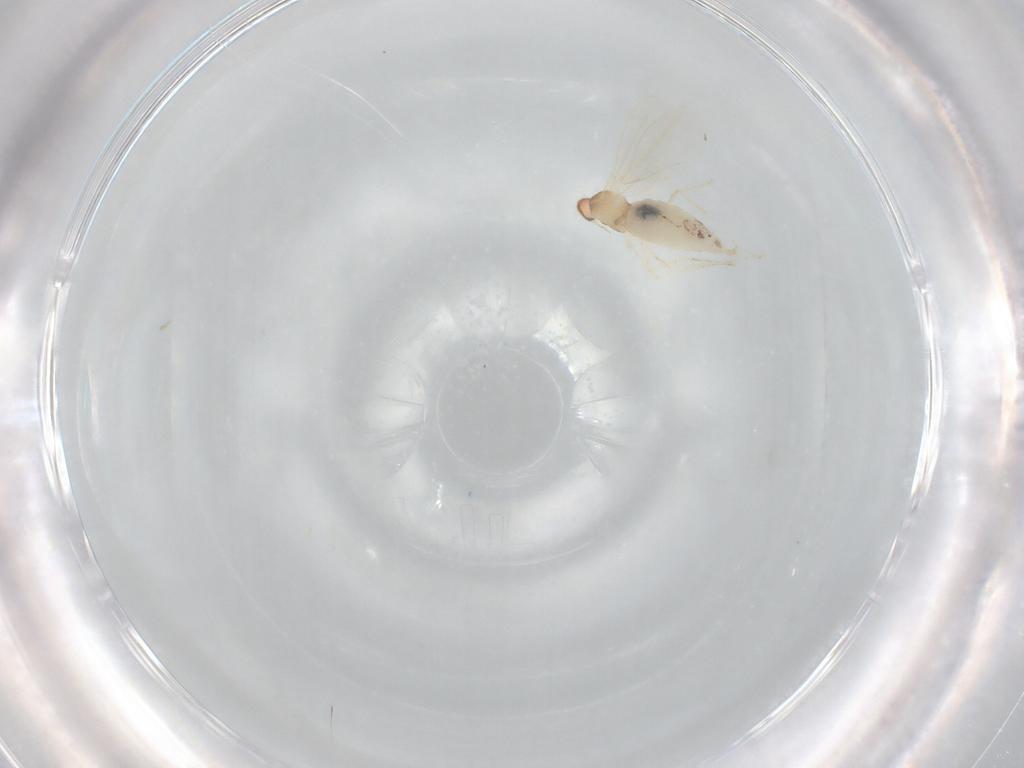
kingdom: Animalia
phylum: Arthropoda
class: Insecta
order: Diptera
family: Cecidomyiidae
